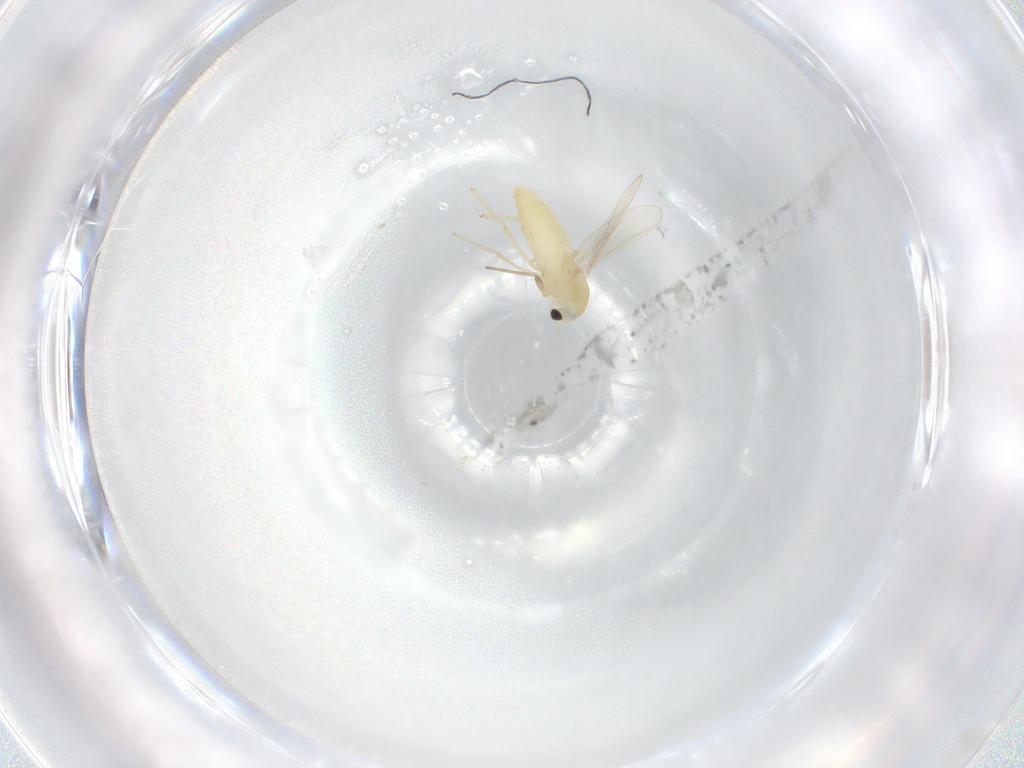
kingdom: Animalia
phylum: Arthropoda
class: Insecta
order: Diptera
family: Chironomidae
